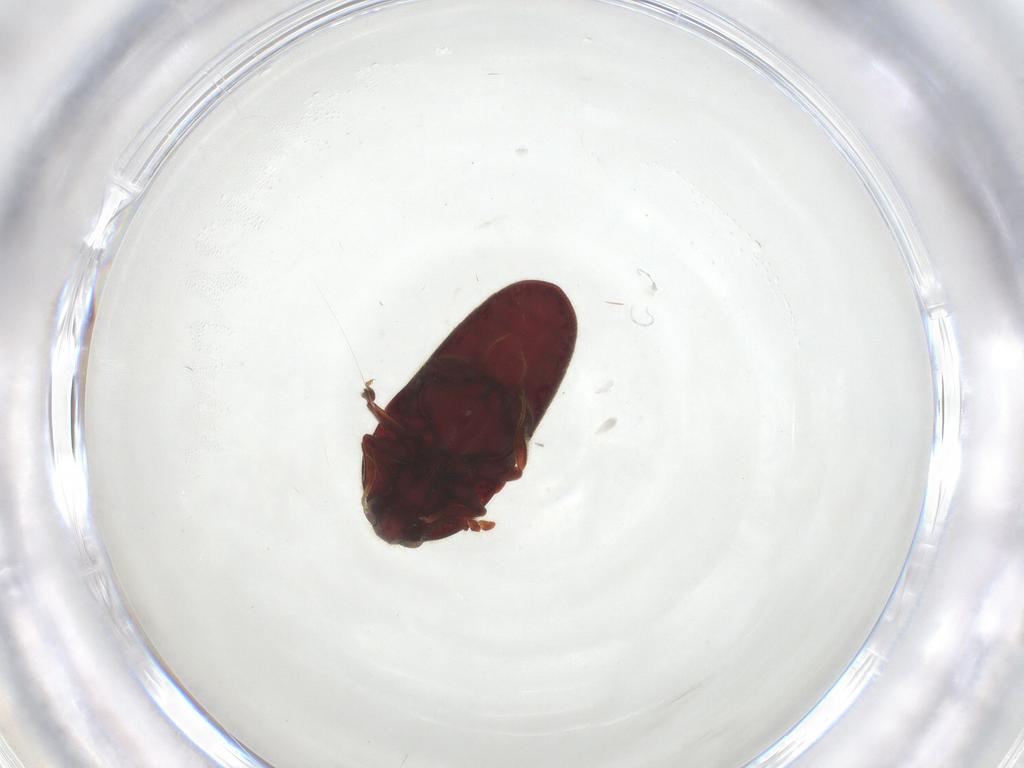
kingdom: Animalia
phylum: Arthropoda
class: Insecta
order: Coleoptera
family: Throscidae
